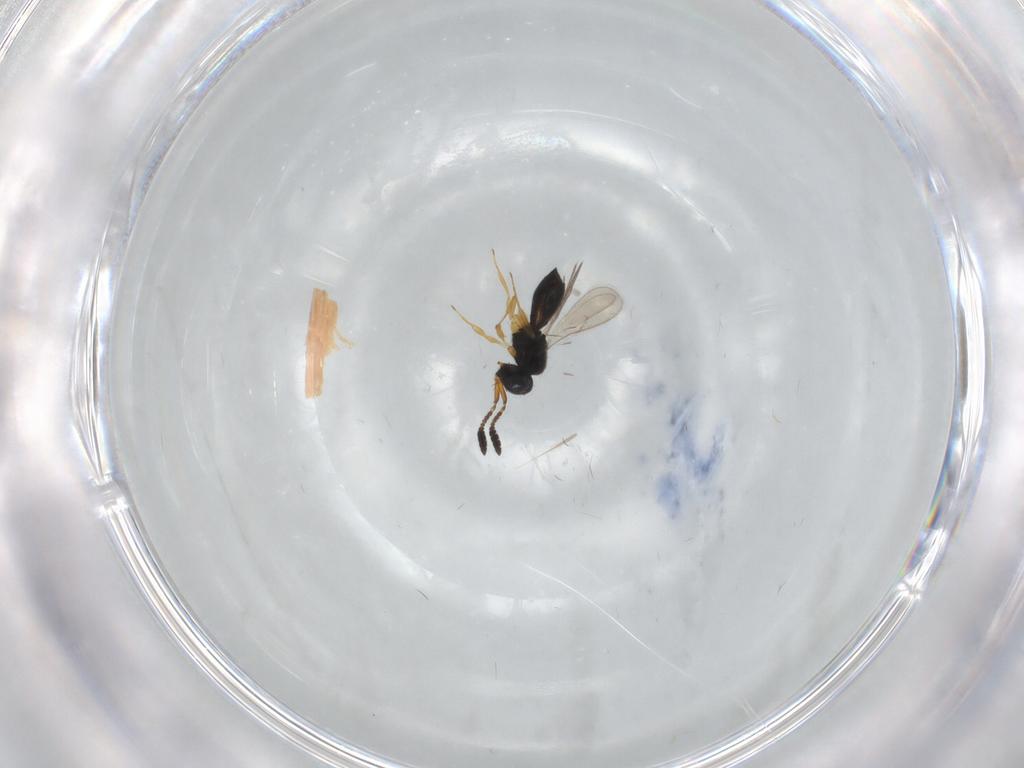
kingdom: Animalia
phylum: Arthropoda
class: Insecta
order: Hymenoptera
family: Scelionidae
